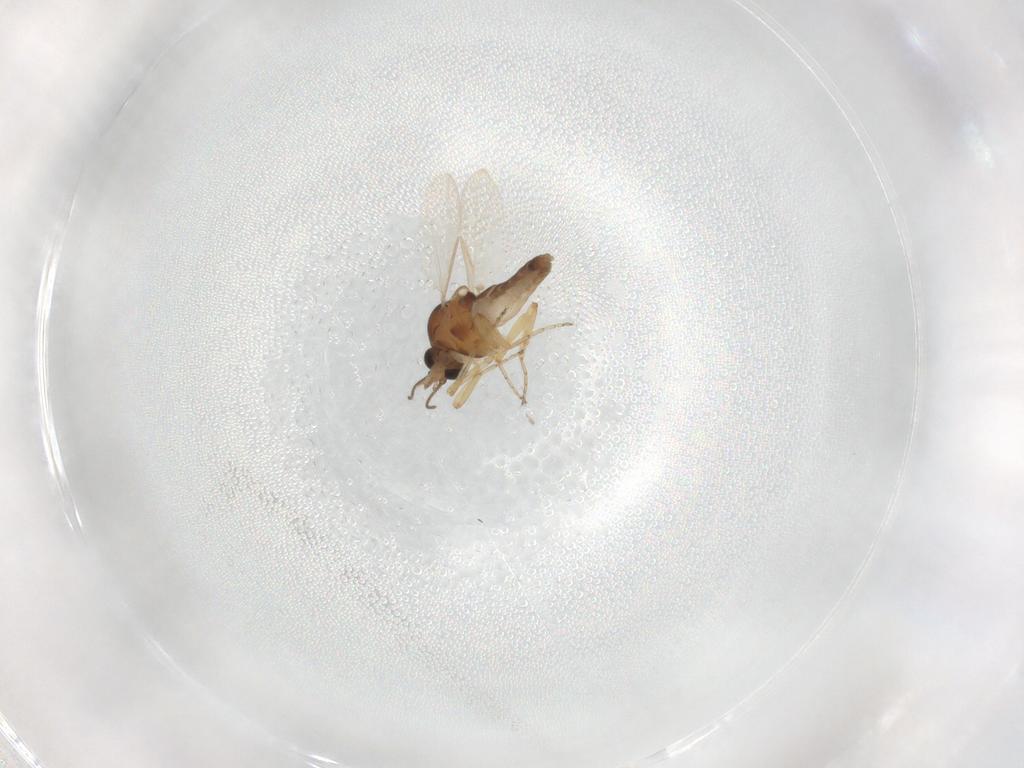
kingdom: Animalia
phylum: Arthropoda
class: Insecta
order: Diptera
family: Ceratopogonidae
